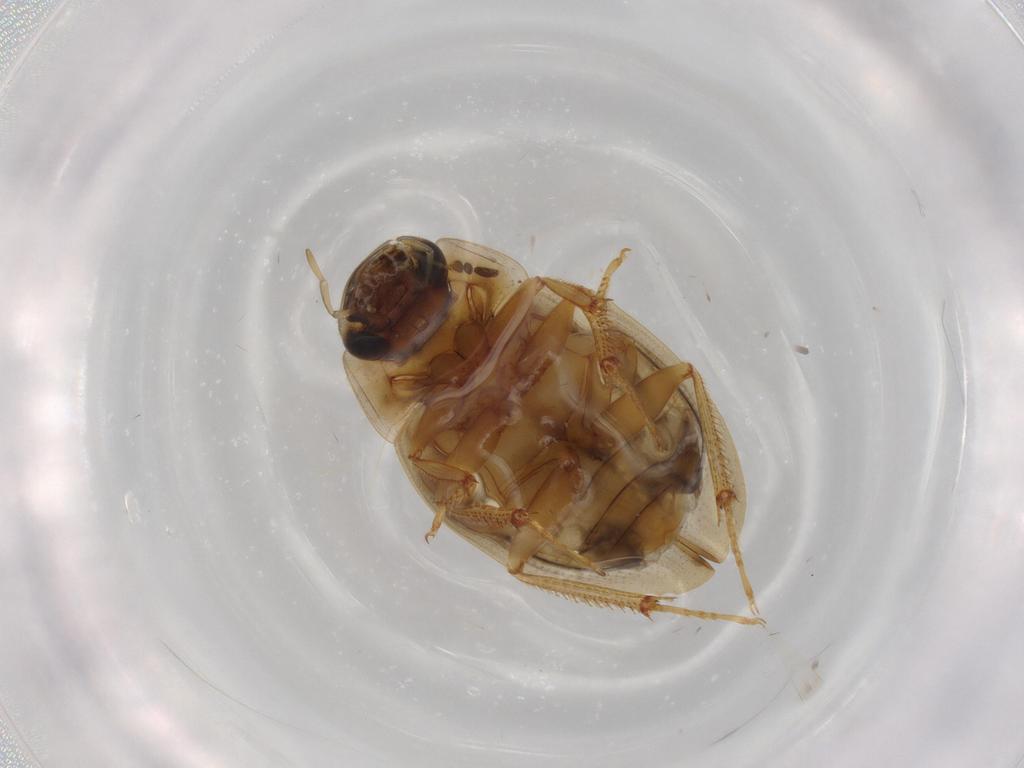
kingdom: Animalia
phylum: Arthropoda
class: Insecta
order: Coleoptera
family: Hydrophilidae
